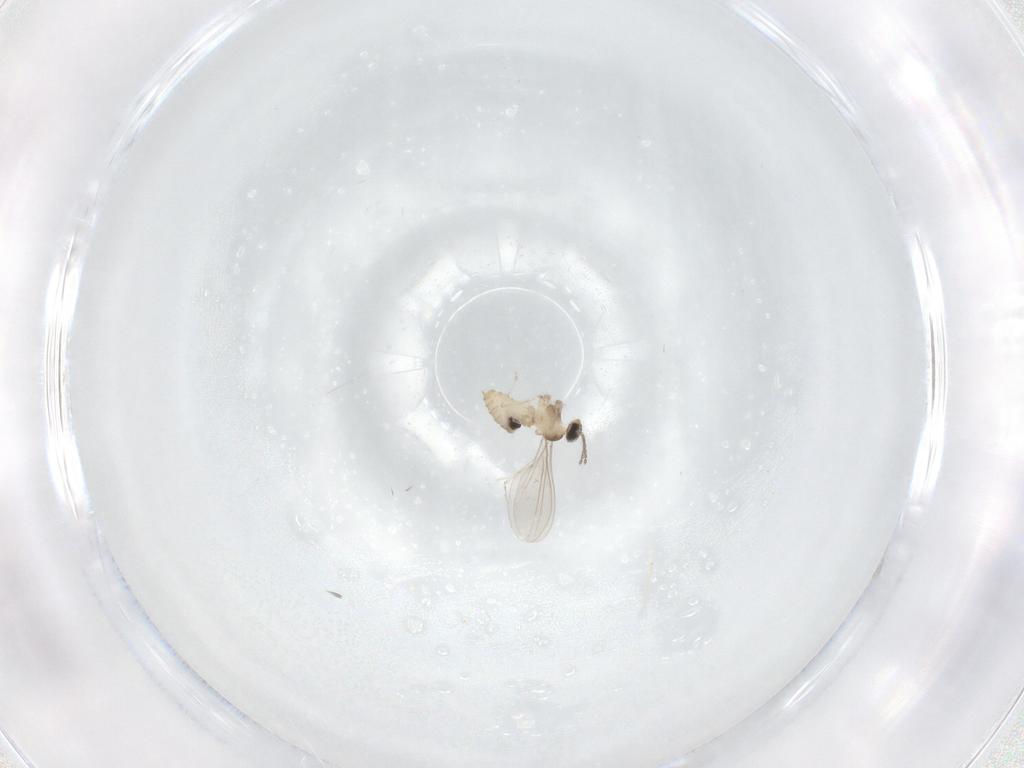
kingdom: Animalia
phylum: Arthropoda
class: Insecta
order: Diptera
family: Cecidomyiidae
